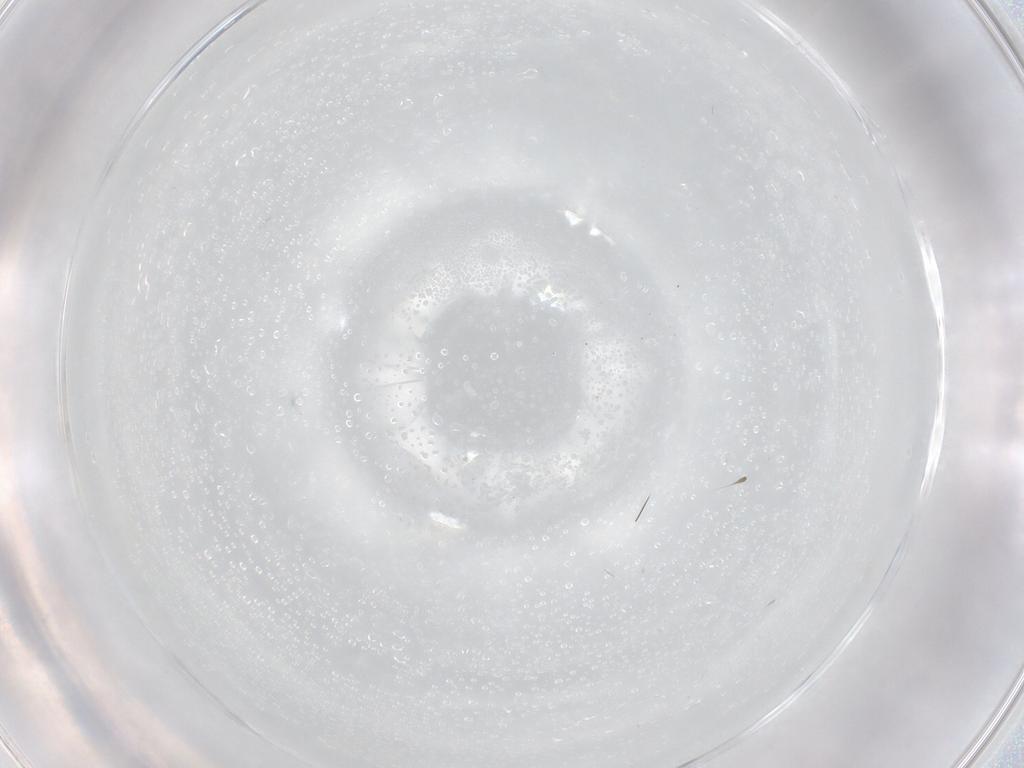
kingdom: Animalia
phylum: Arthropoda
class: Insecta
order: Diptera
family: Cecidomyiidae
